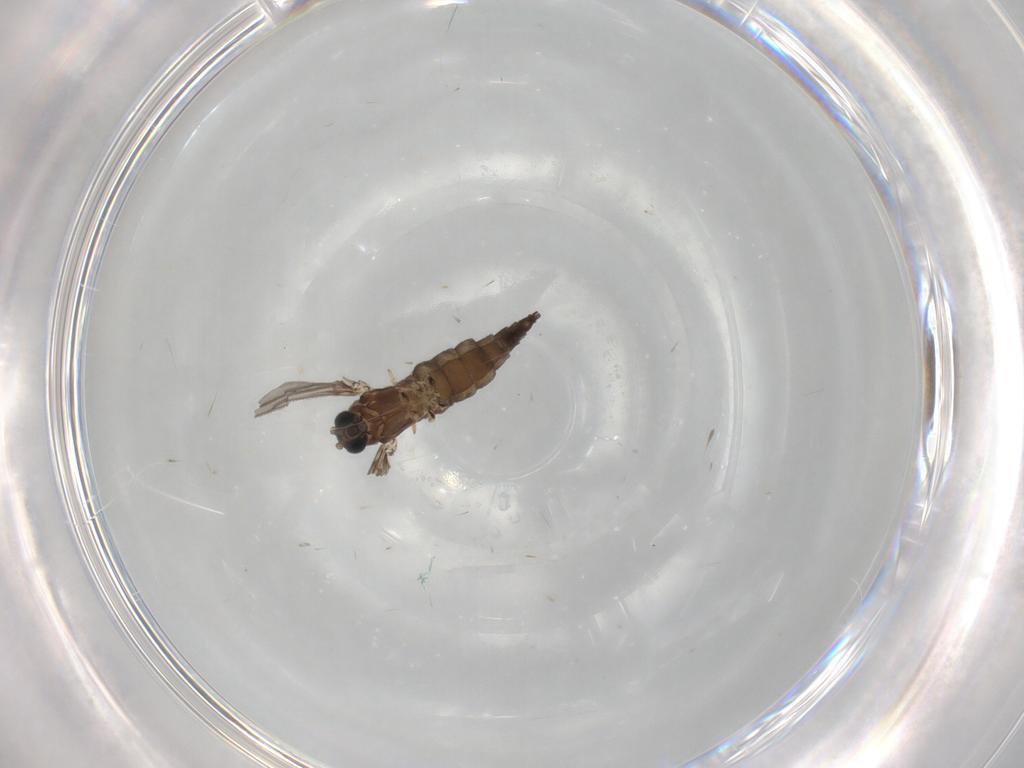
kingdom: Animalia
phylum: Arthropoda
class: Insecta
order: Diptera
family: Sciaridae
